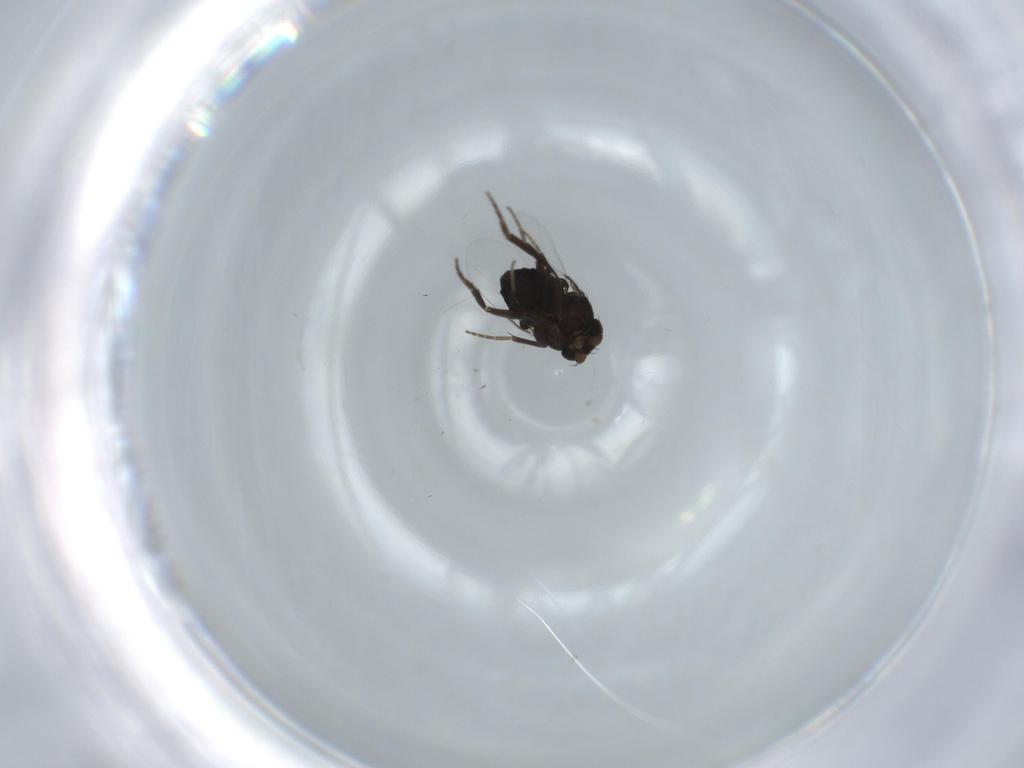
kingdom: Animalia
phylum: Arthropoda
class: Insecta
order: Diptera
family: Phoridae
